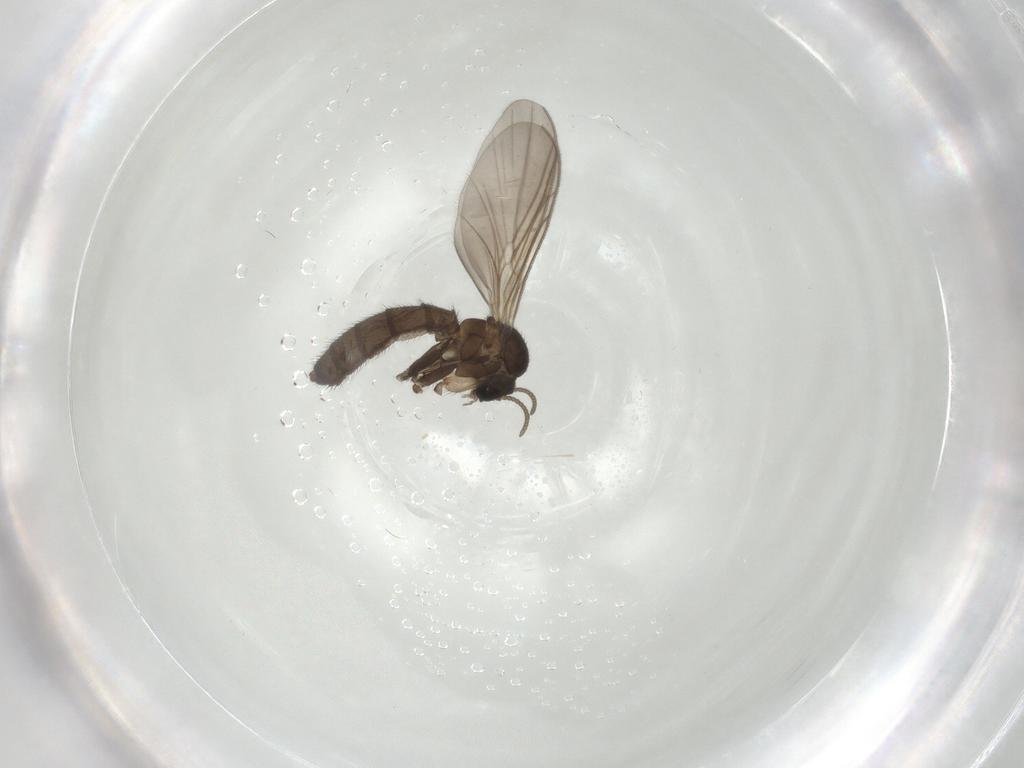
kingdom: Animalia
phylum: Arthropoda
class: Insecta
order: Diptera
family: Keroplatidae
